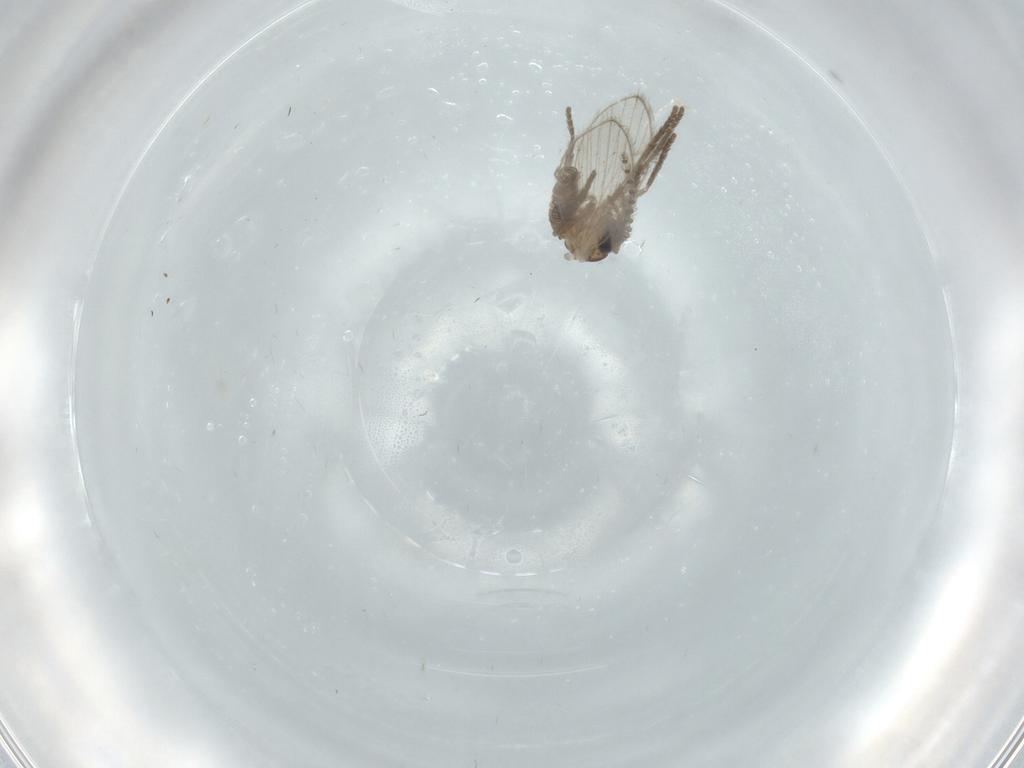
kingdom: Animalia
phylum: Arthropoda
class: Insecta
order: Diptera
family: Psychodidae
